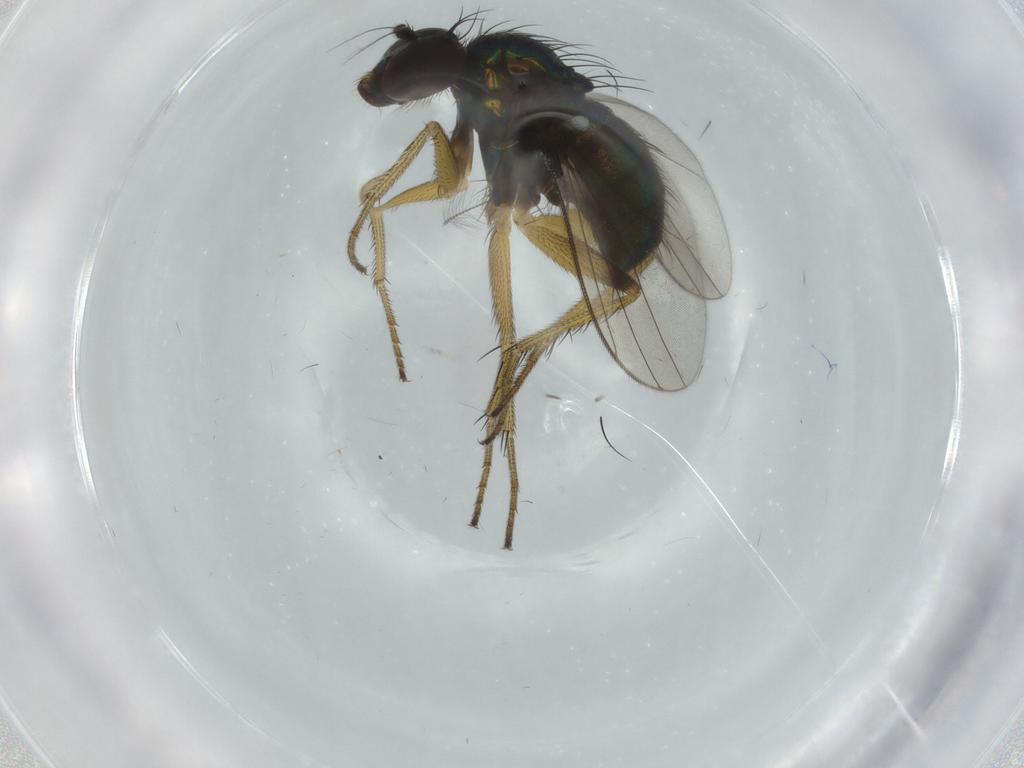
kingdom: Animalia
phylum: Arthropoda
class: Insecta
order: Diptera
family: Dolichopodidae
